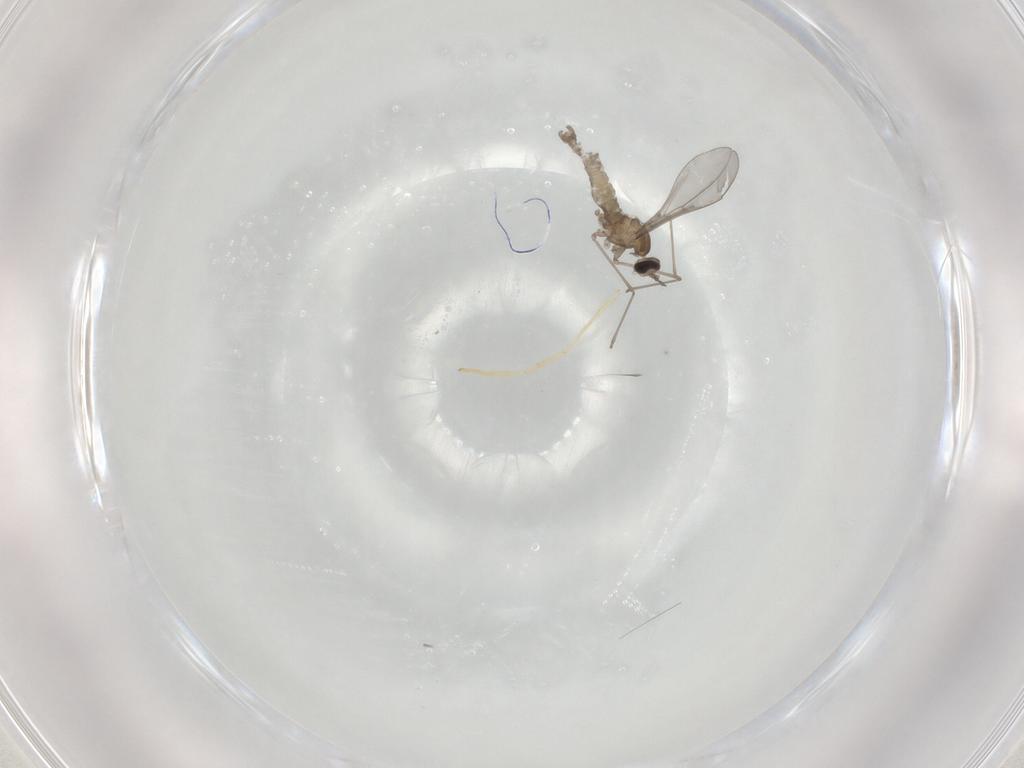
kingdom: Animalia
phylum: Arthropoda
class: Insecta
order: Diptera
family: Cecidomyiidae
